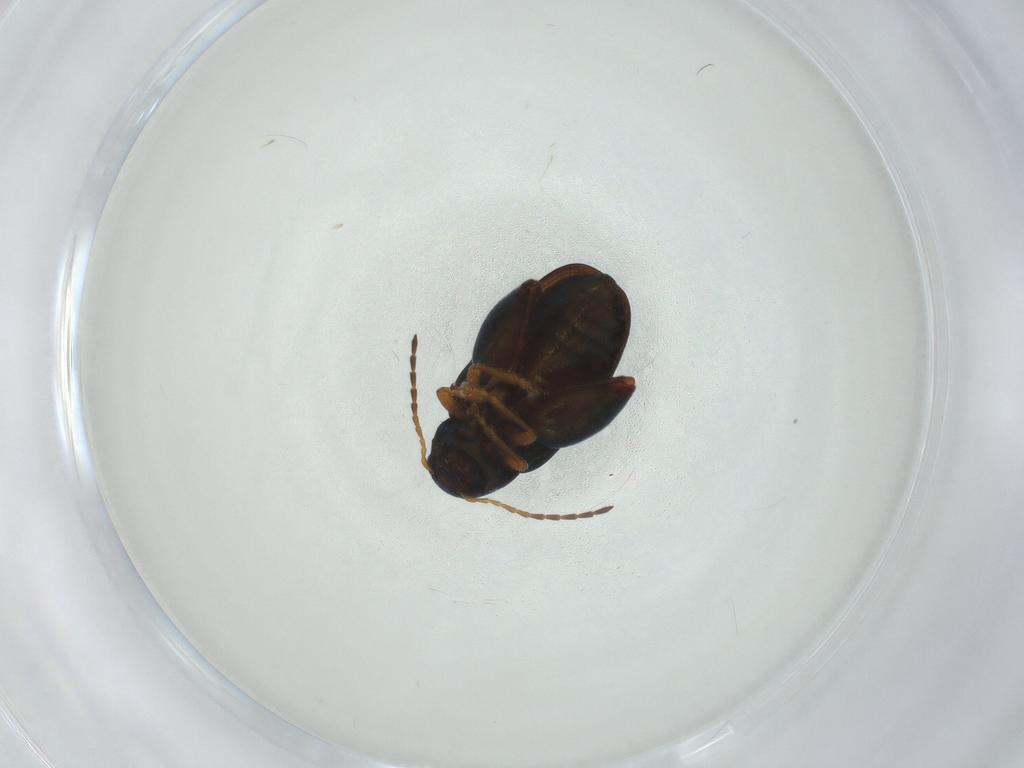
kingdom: Animalia
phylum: Arthropoda
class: Insecta
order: Coleoptera
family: Chrysomelidae
